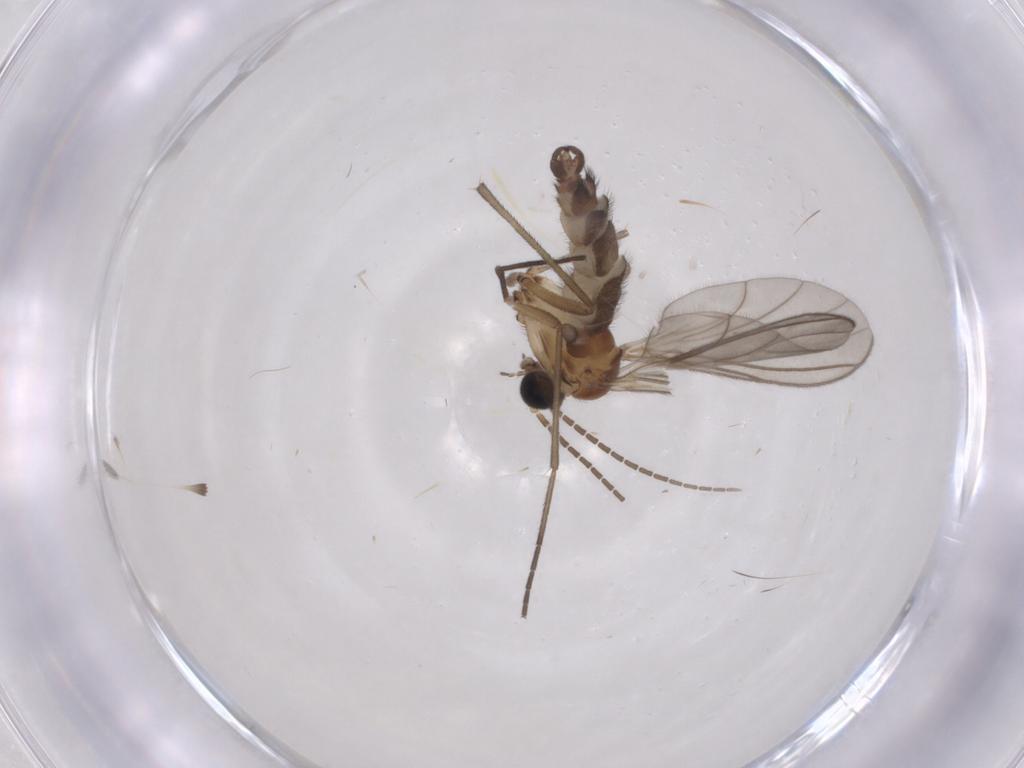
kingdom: Animalia
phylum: Arthropoda
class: Insecta
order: Diptera
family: Sciaridae
